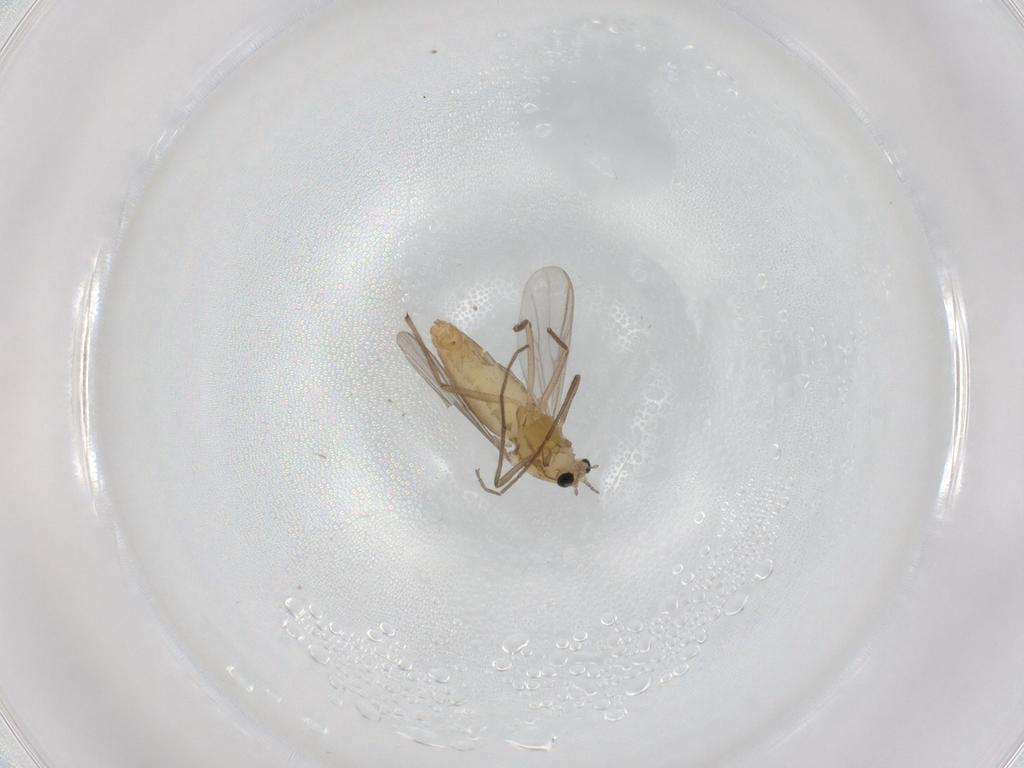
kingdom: Animalia
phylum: Arthropoda
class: Insecta
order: Diptera
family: Chironomidae
